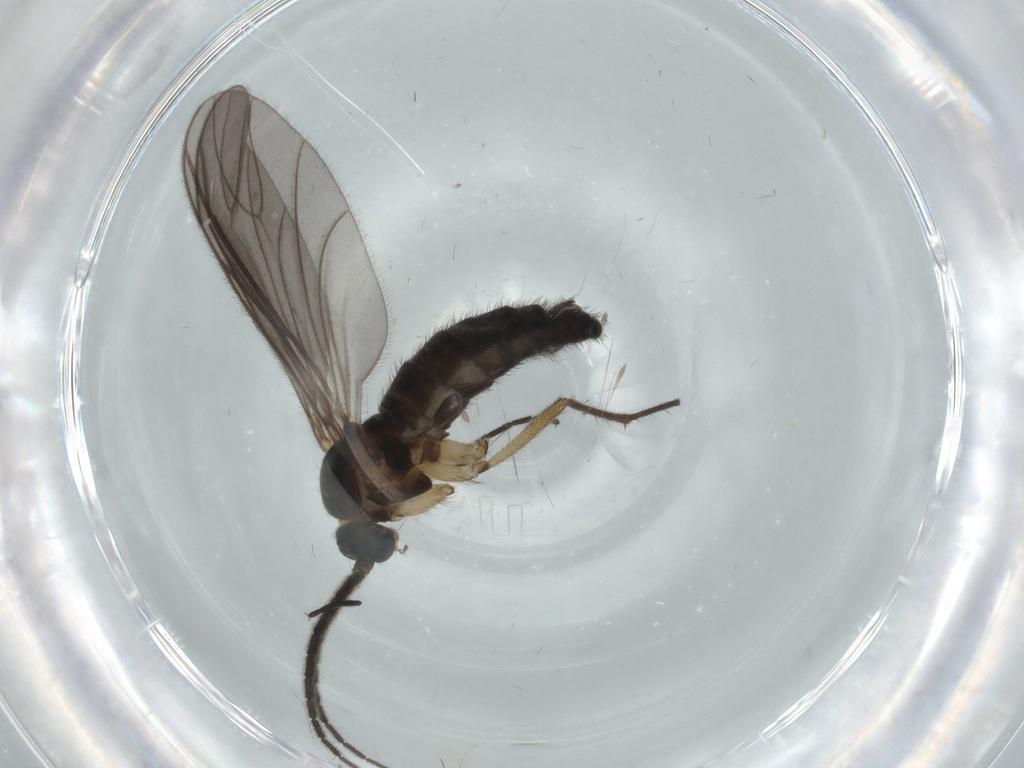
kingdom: Animalia
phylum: Arthropoda
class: Insecta
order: Diptera
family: Sciaridae
